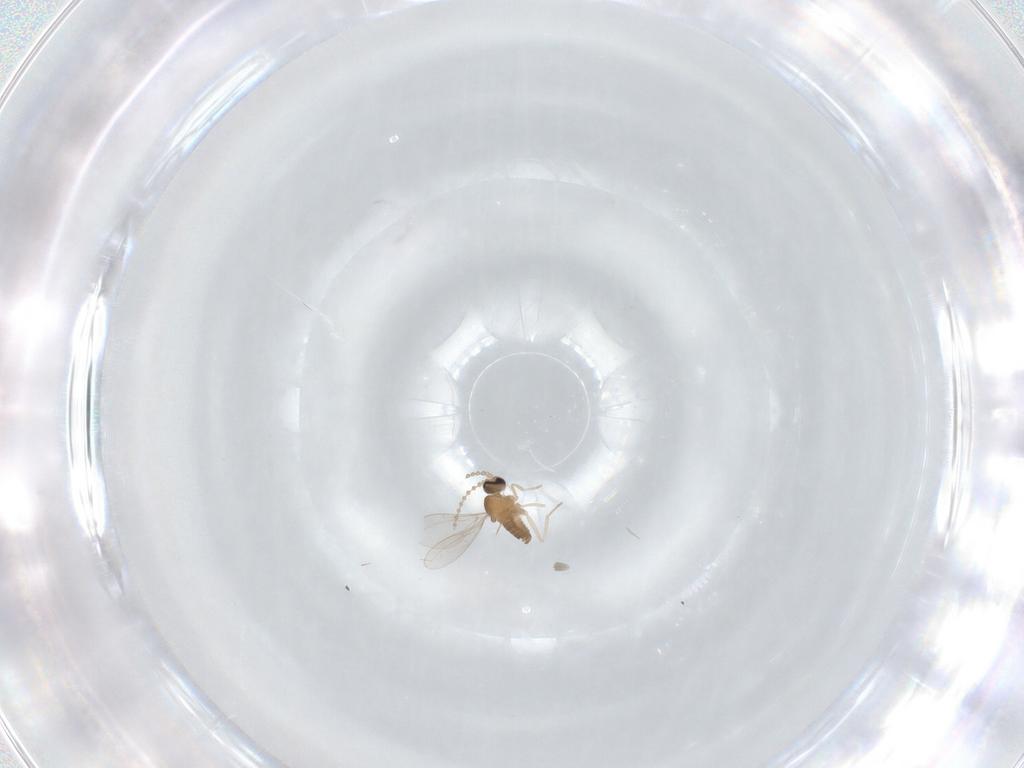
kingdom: Animalia
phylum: Arthropoda
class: Insecta
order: Diptera
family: Cecidomyiidae
